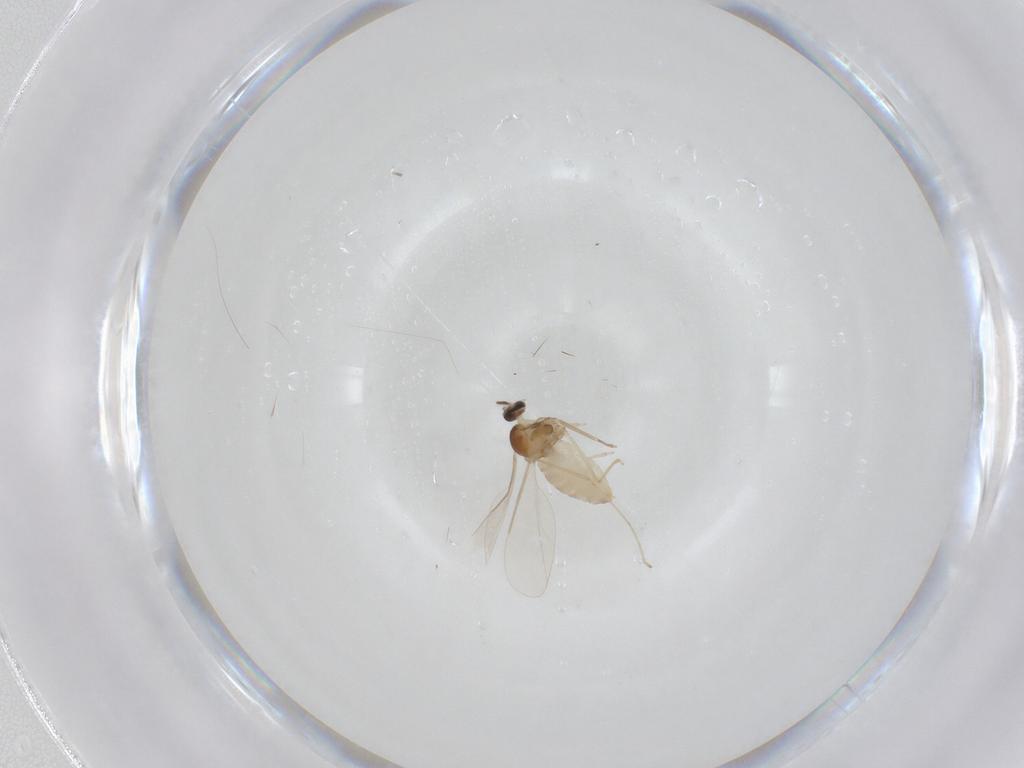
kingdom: Animalia
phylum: Arthropoda
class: Insecta
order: Diptera
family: Cecidomyiidae
